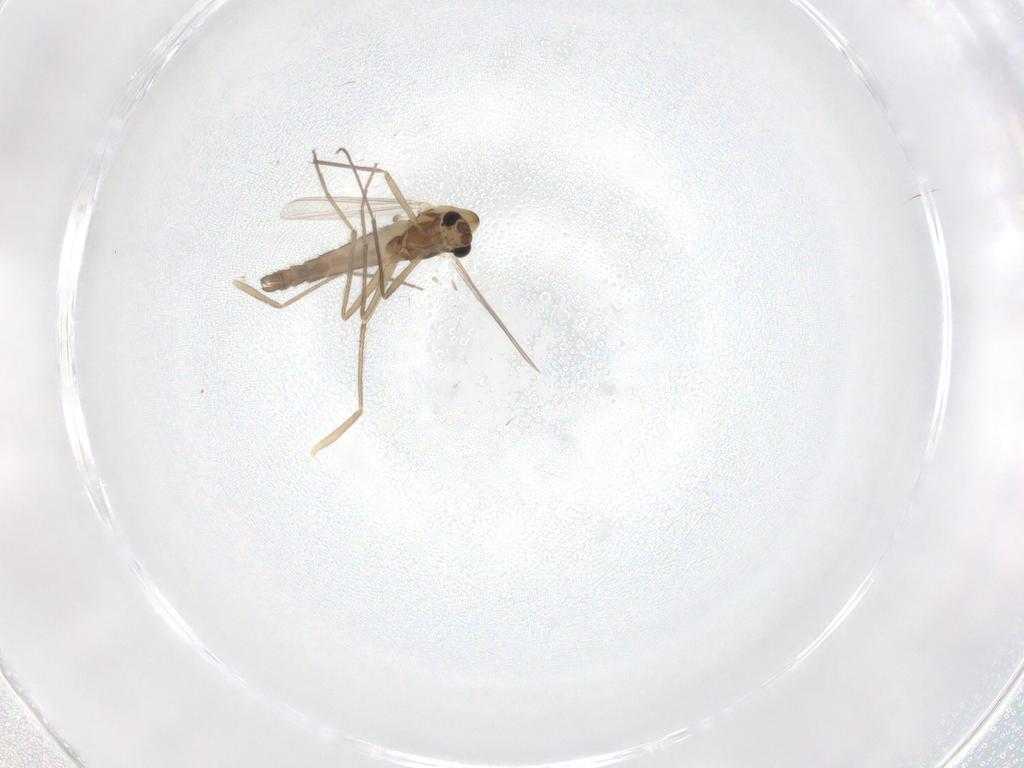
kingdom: Animalia
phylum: Arthropoda
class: Insecta
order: Diptera
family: Chironomidae
